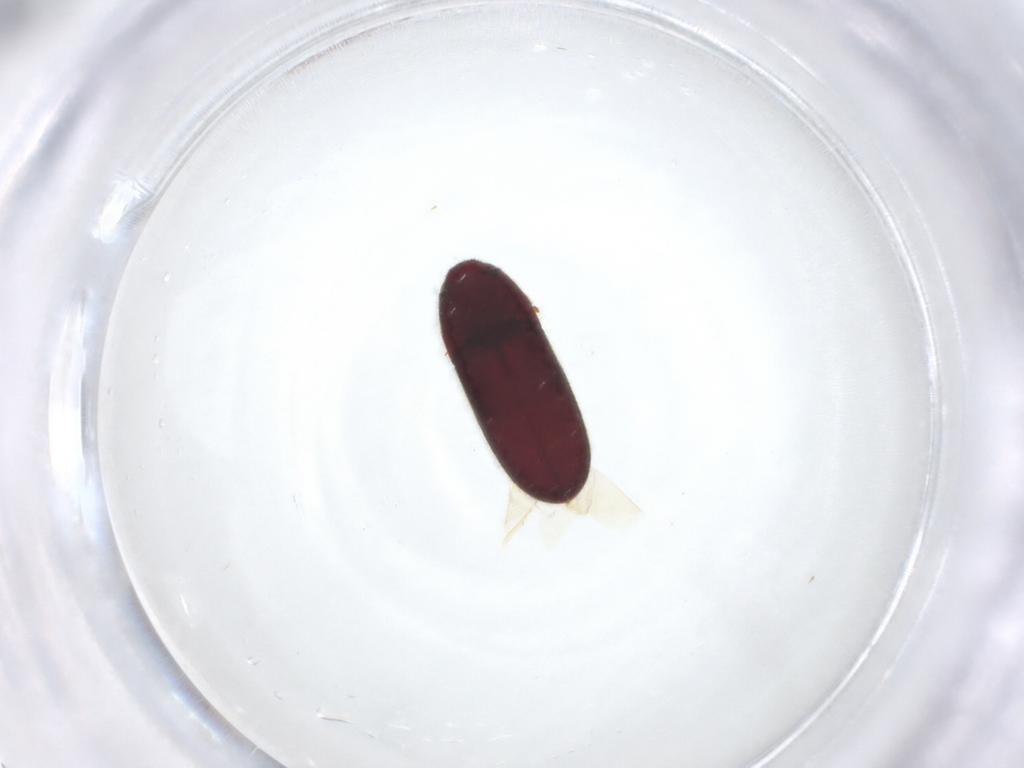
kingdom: Animalia
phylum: Arthropoda
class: Insecta
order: Coleoptera
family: Throscidae
